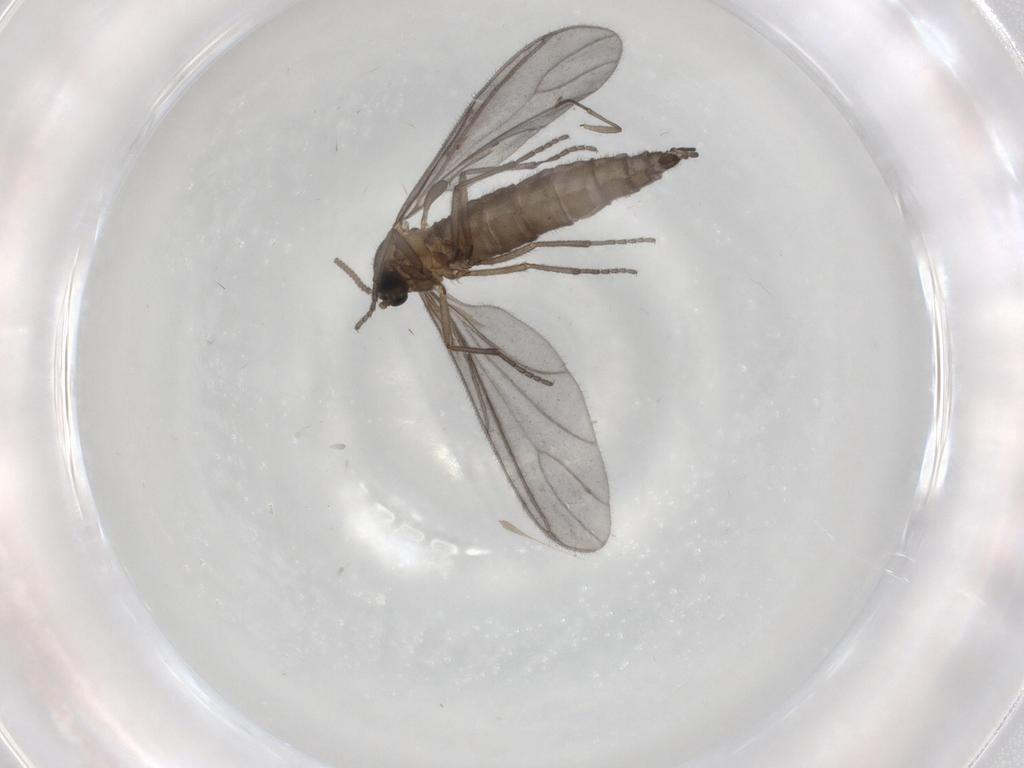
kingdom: Animalia
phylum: Arthropoda
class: Insecta
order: Diptera
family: Sciaridae
